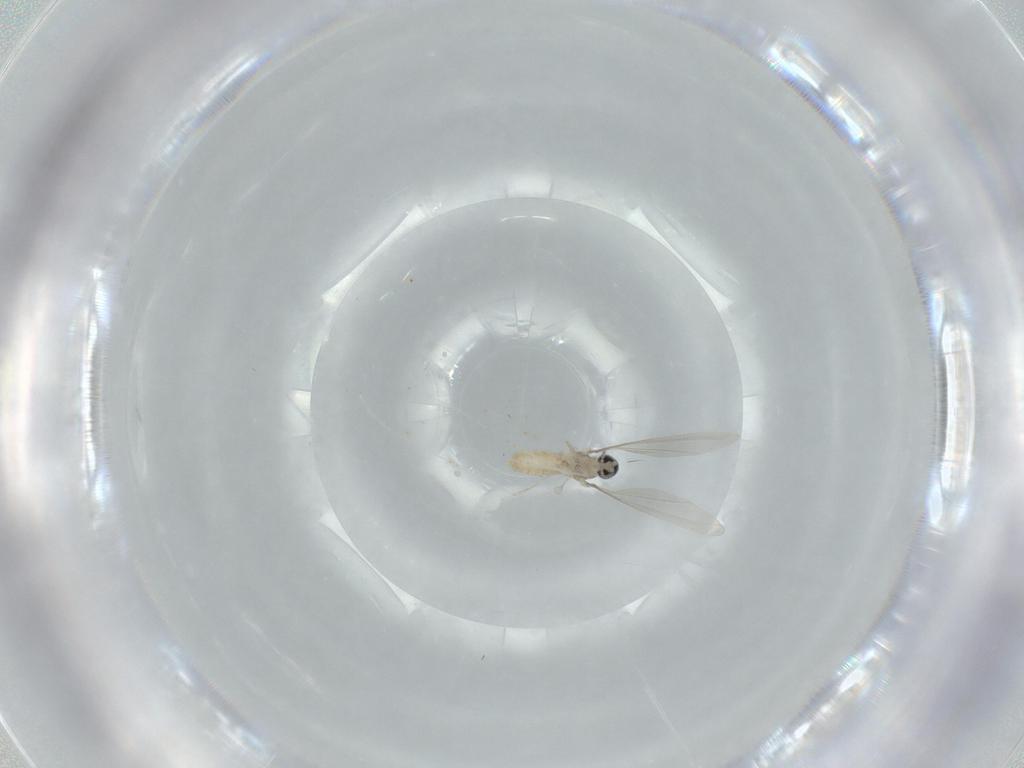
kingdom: Animalia
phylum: Arthropoda
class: Insecta
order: Diptera
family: Cecidomyiidae
